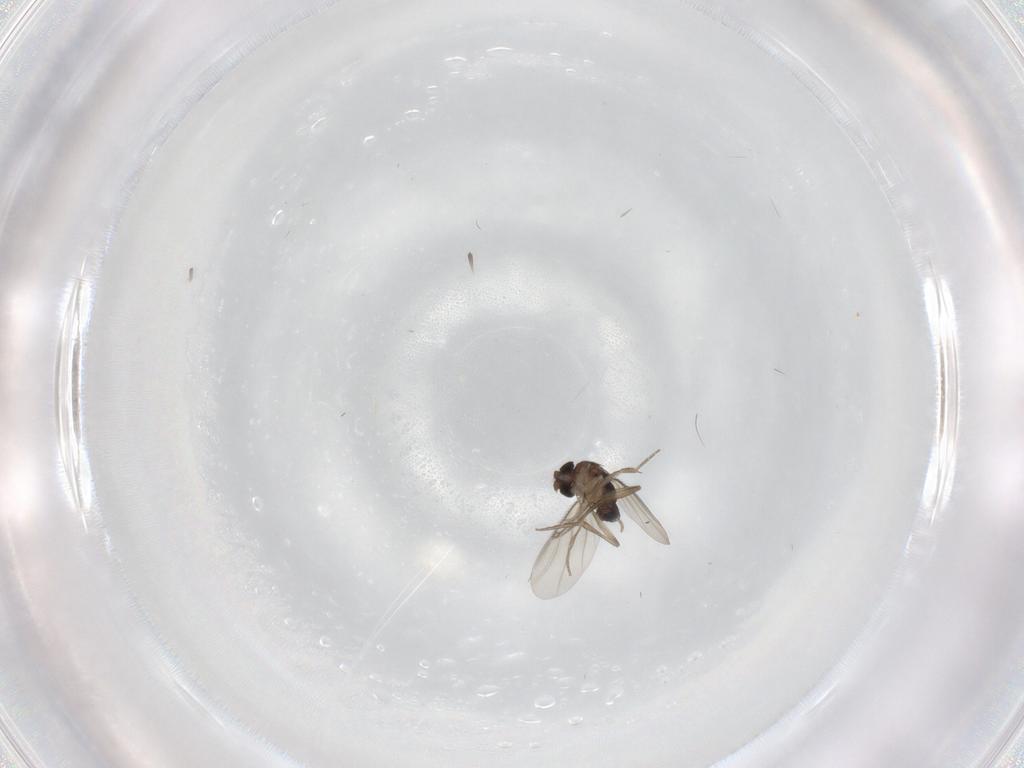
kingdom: Animalia
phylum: Arthropoda
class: Insecta
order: Diptera
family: Phoridae
